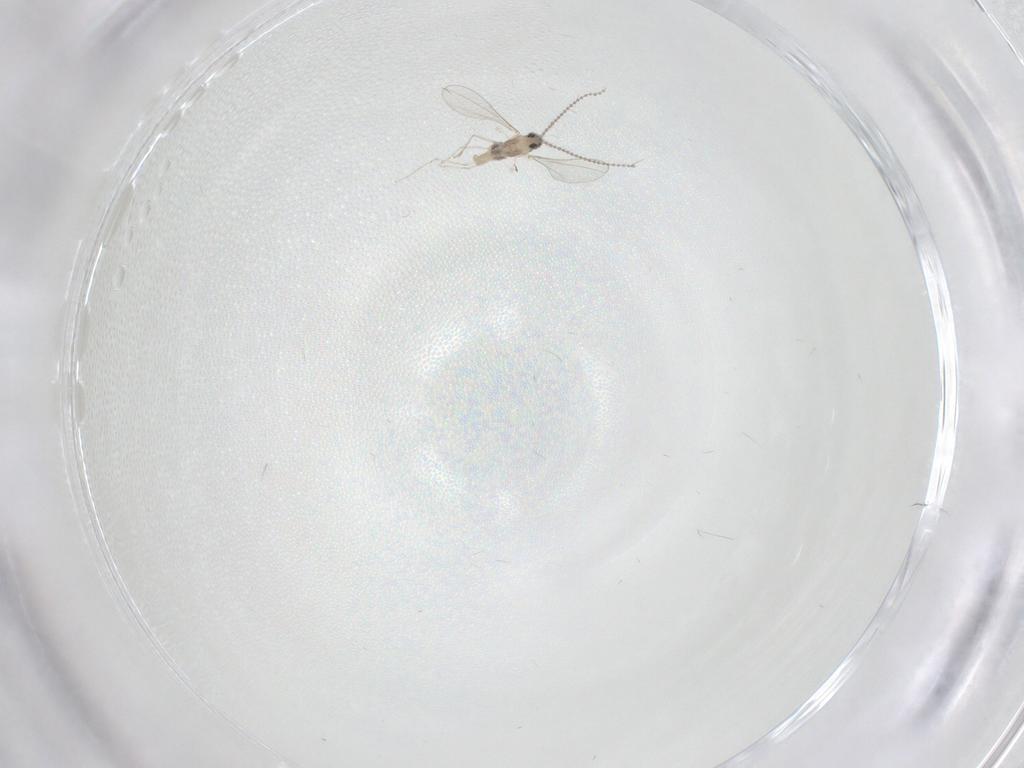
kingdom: Animalia
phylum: Arthropoda
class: Insecta
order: Diptera
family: Cecidomyiidae
